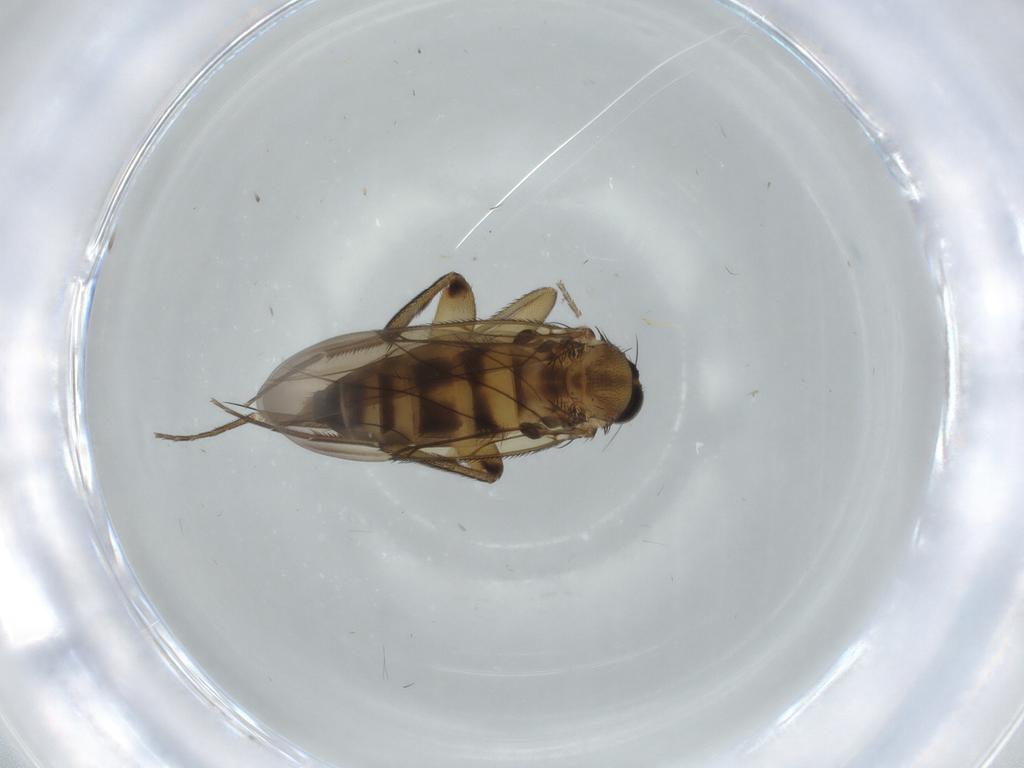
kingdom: Animalia
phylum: Arthropoda
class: Insecta
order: Diptera
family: Phoridae
